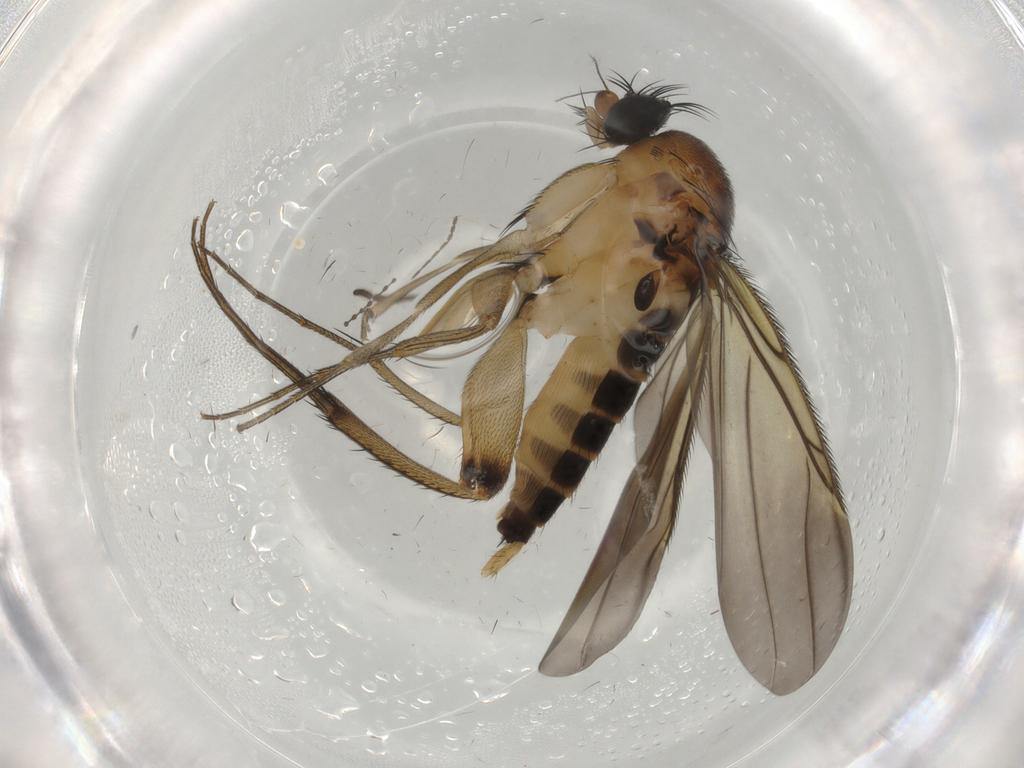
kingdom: Animalia
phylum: Arthropoda
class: Insecta
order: Diptera
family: Phoridae
